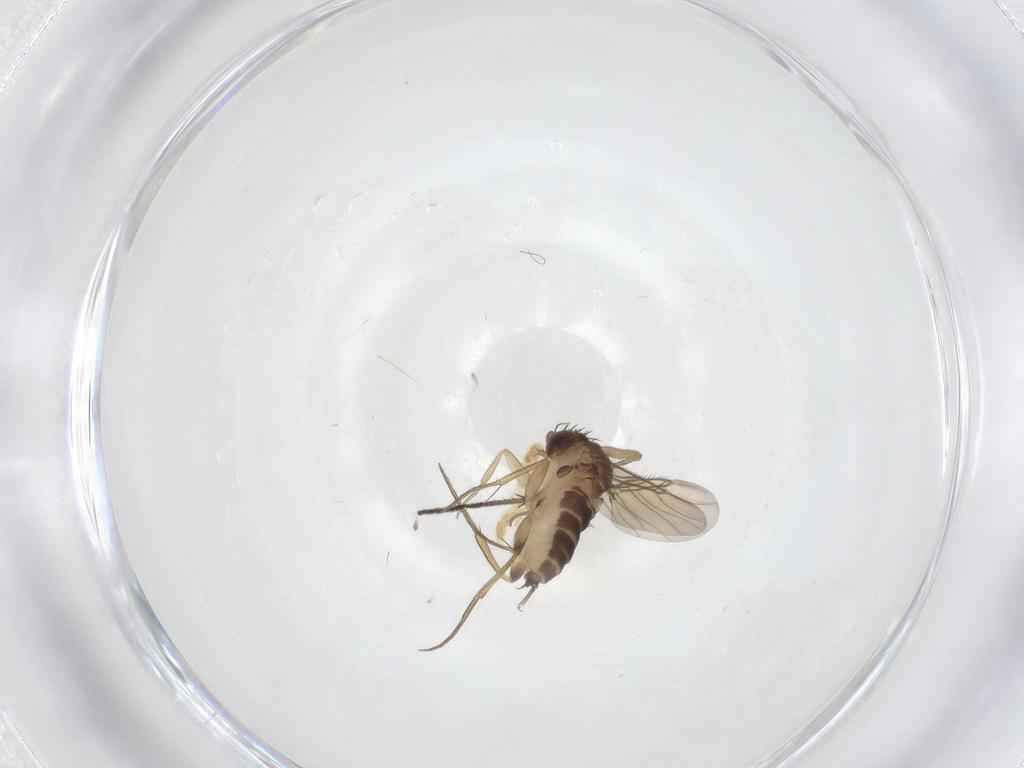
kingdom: Animalia
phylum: Arthropoda
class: Insecta
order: Diptera
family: Phoridae
